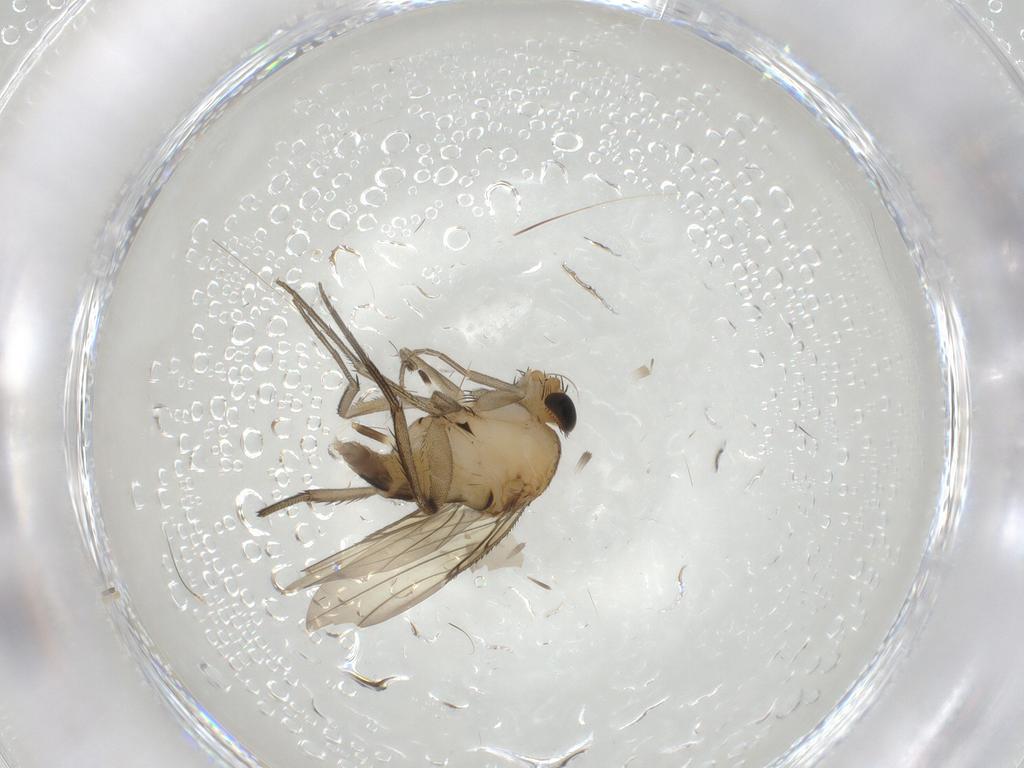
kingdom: Animalia
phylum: Arthropoda
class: Insecta
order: Diptera
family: Phoridae
